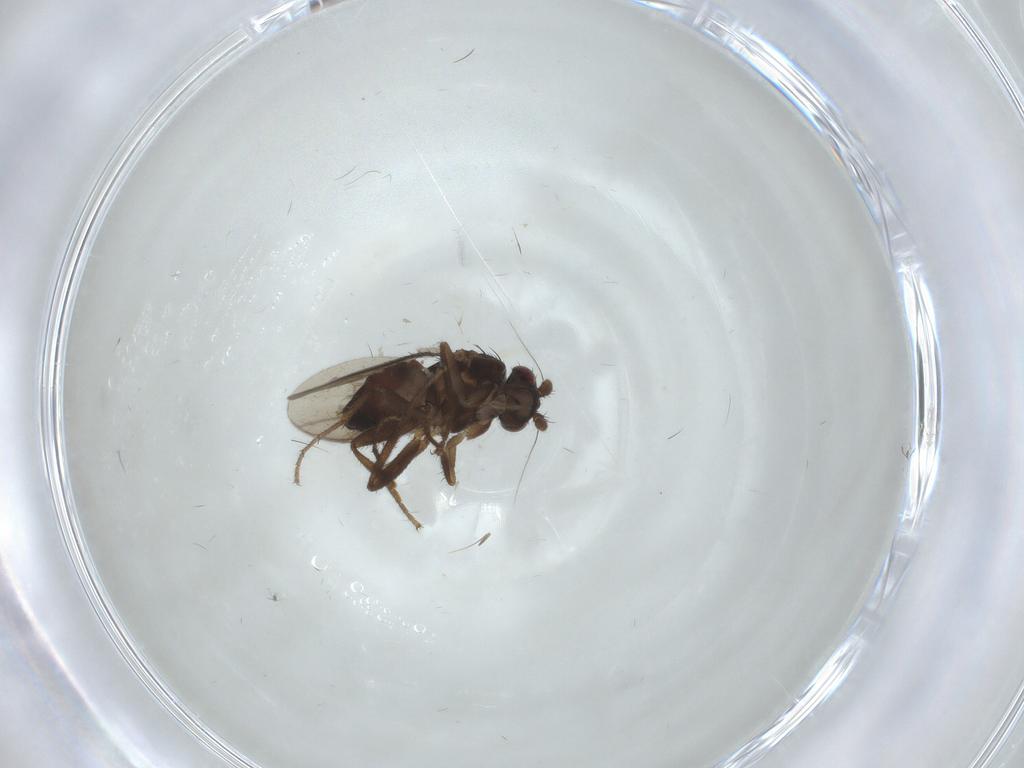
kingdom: Animalia
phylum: Arthropoda
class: Insecta
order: Diptera
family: Sphaeroceridae
